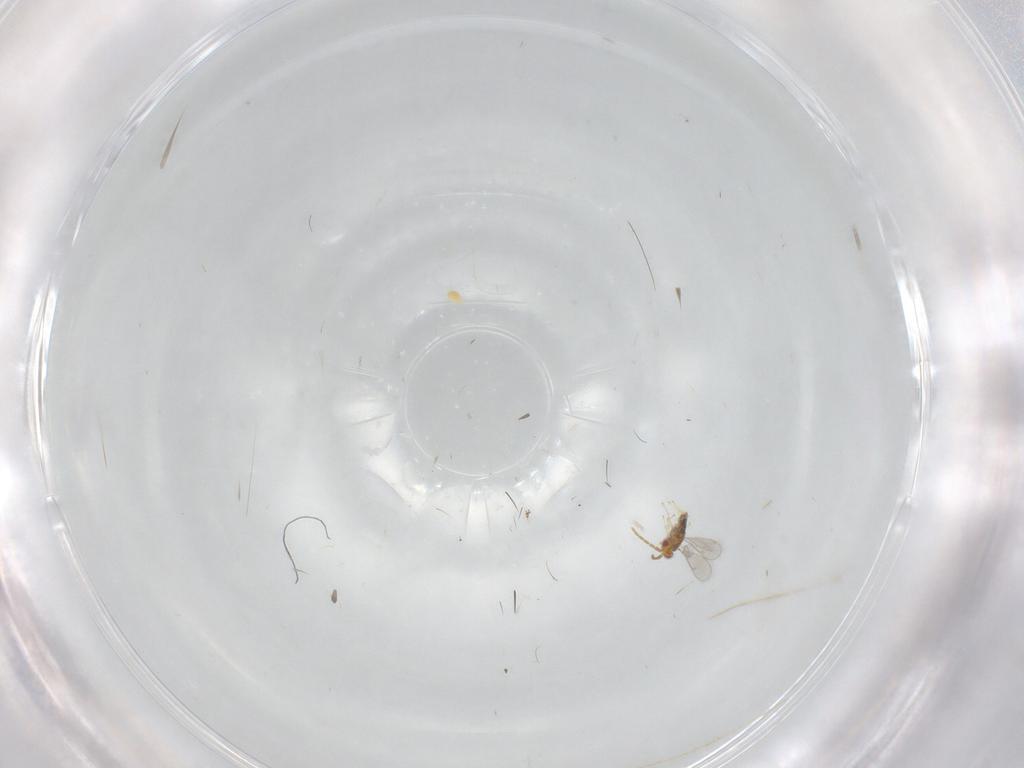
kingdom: Animalia
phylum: Arthropoda
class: Insecta
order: Hymenoptera
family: Aphelinidae
